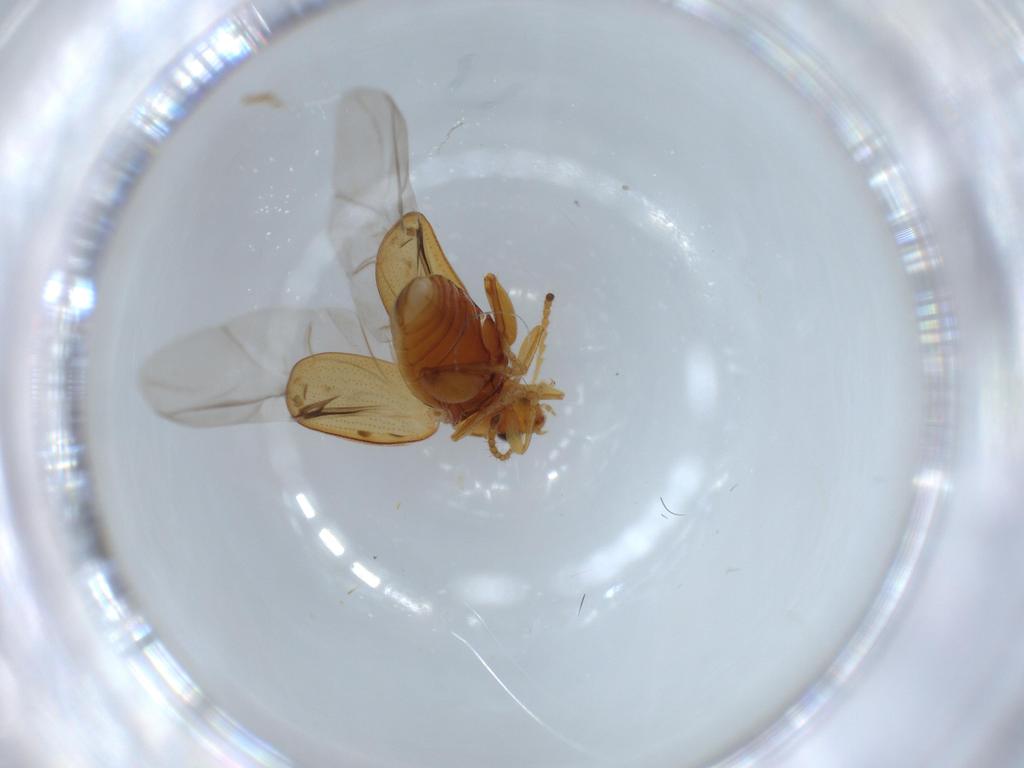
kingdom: Animalia
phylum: Arthropoda
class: Insecta
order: Coleoptera
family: Chrysomelidae
